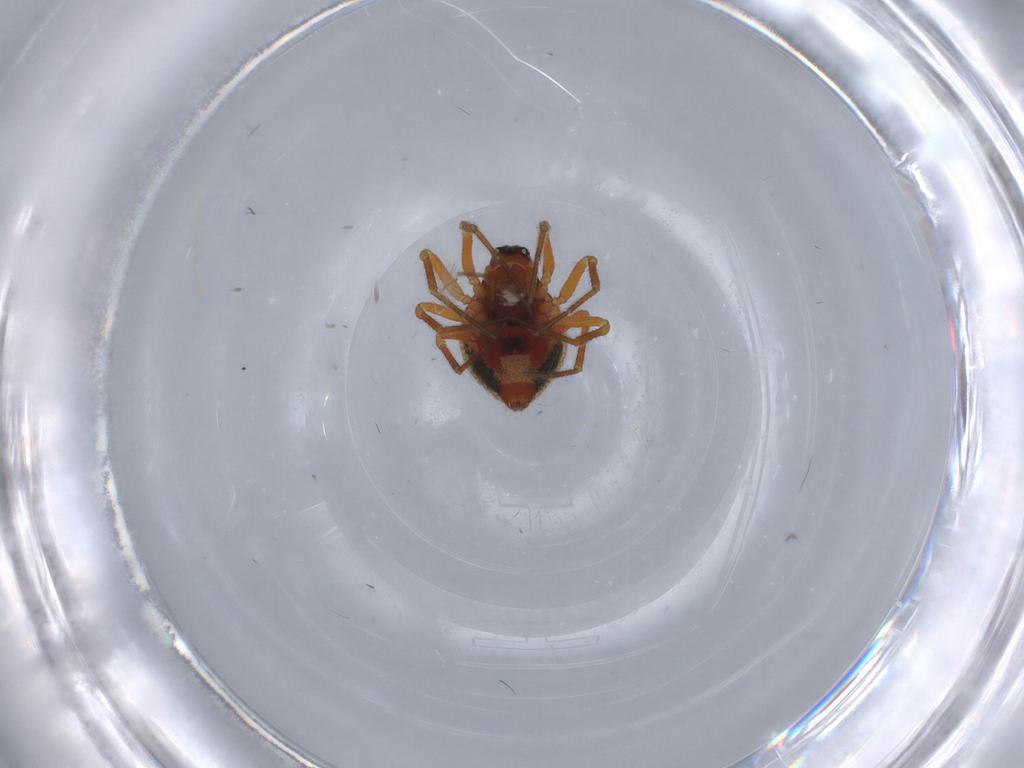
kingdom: Animalia
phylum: Arthropoda
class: Arachnida
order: Araneae
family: Linyphiidae
